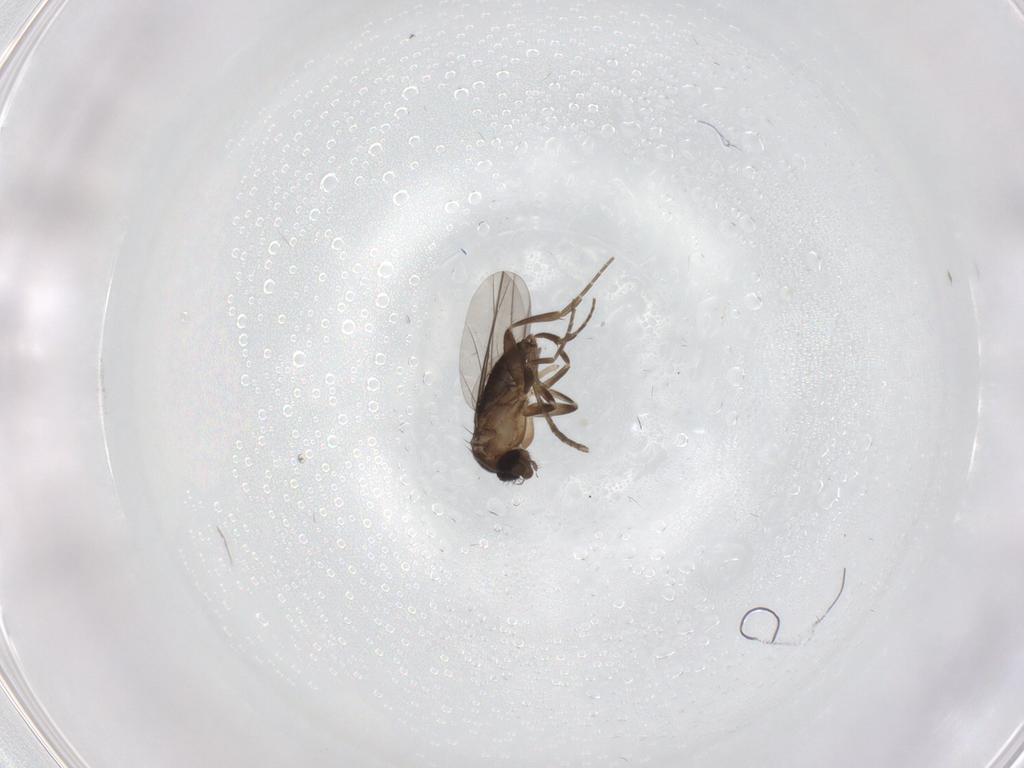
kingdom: Animalia
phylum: Arthropoda
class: Insecta
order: Diptera
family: Phoridae
